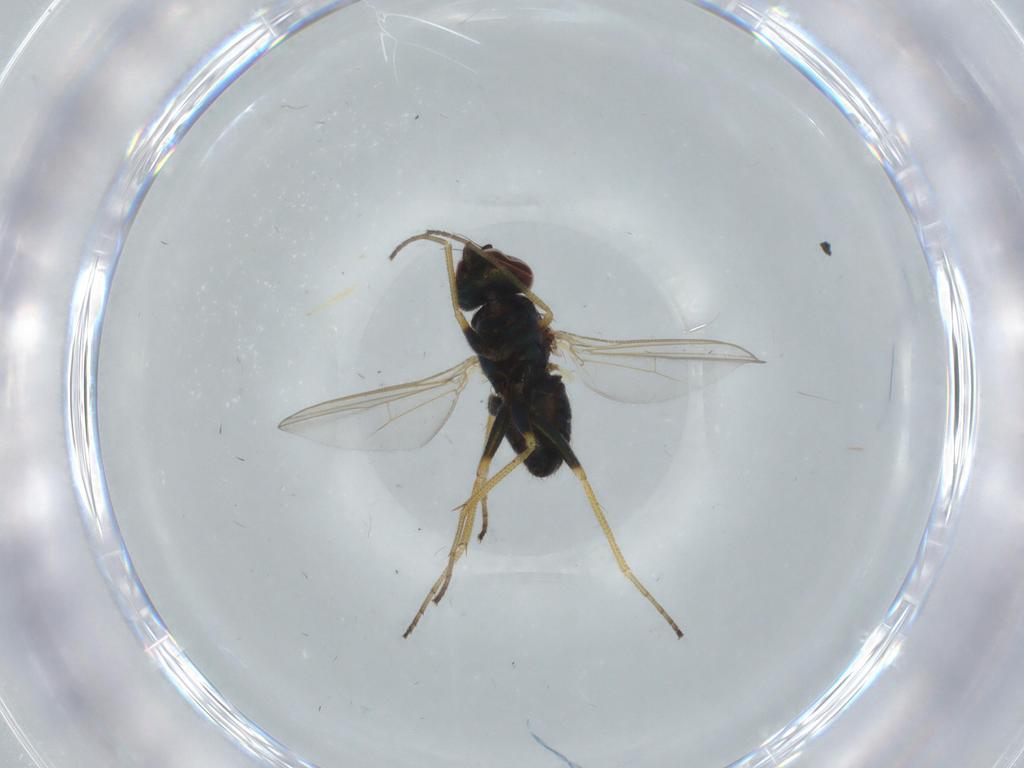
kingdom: Animalia
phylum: Arthropoda
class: Insecta
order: Diptera
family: Dolichopodidae
